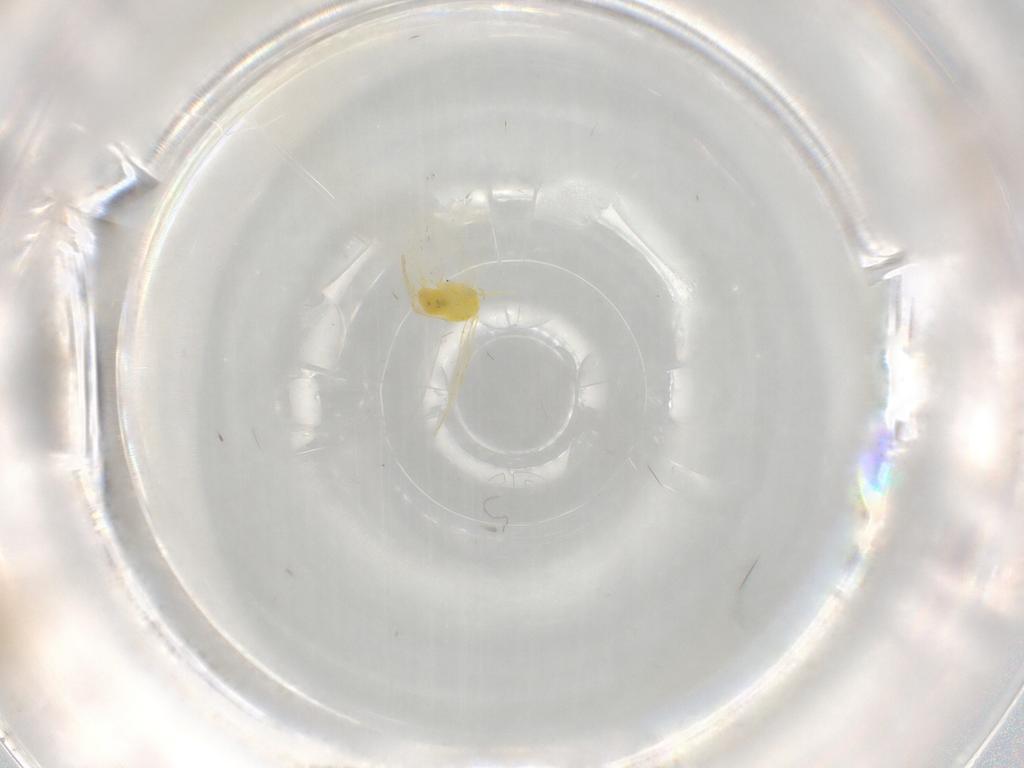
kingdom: Animalia
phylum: Arthropoda
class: Insecta
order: Hemiptera
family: Aleyrodidae
